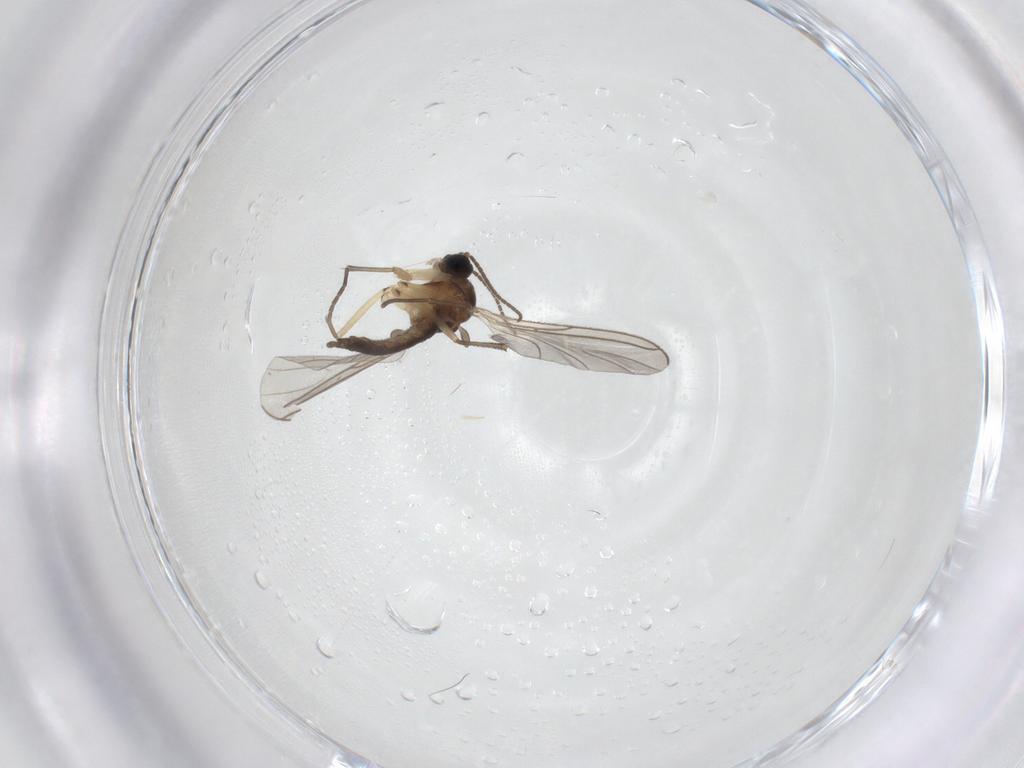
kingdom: Animalia
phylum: Arthropoda
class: Insecta
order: Diptera
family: Sciaridae
